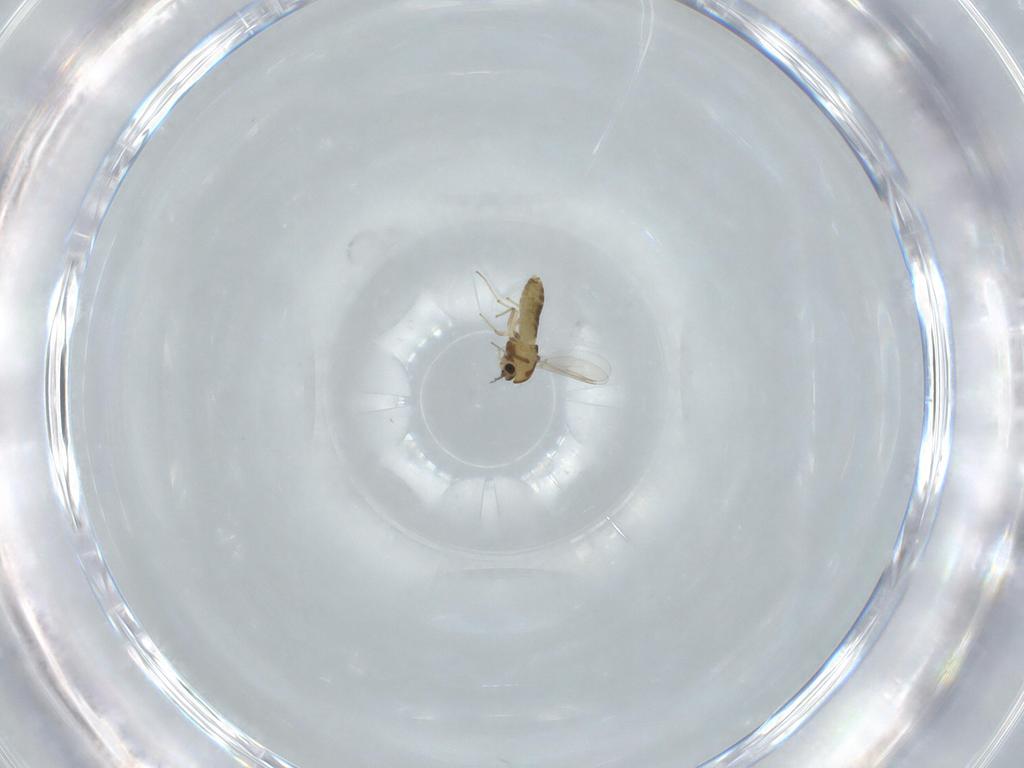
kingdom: Animalia
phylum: Arthropoda
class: Insecta
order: Diptera
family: Chironomidae
